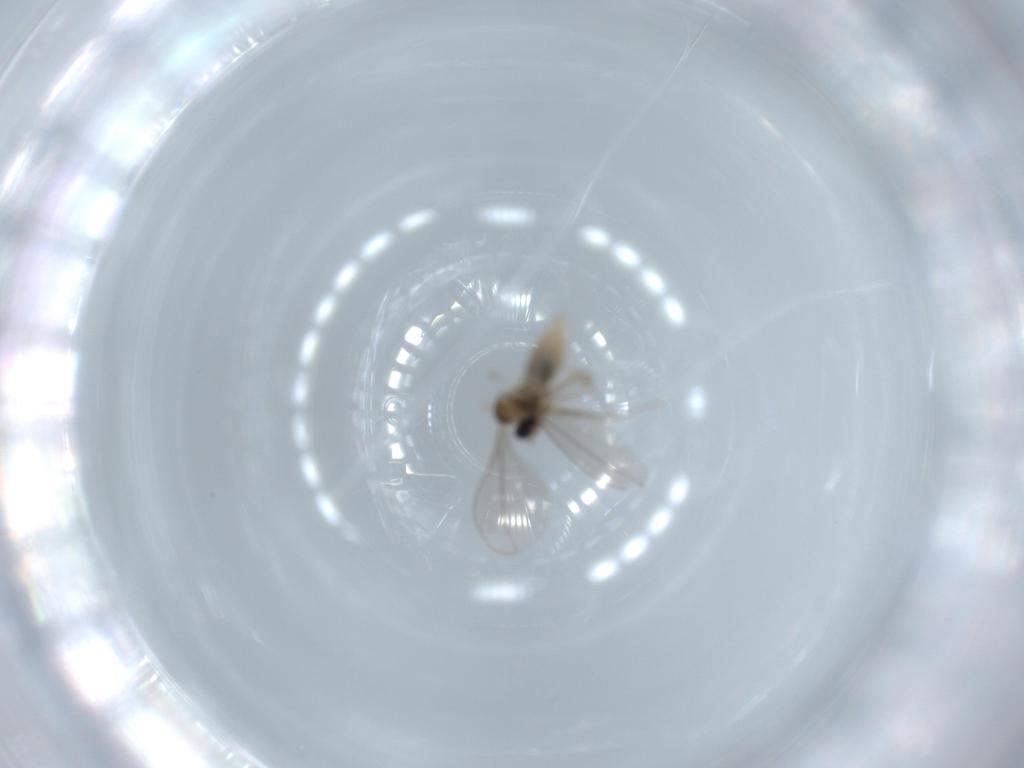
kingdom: Animalia
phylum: Arthropoda
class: Insecta
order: Diptera
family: Cecidomyiidae
